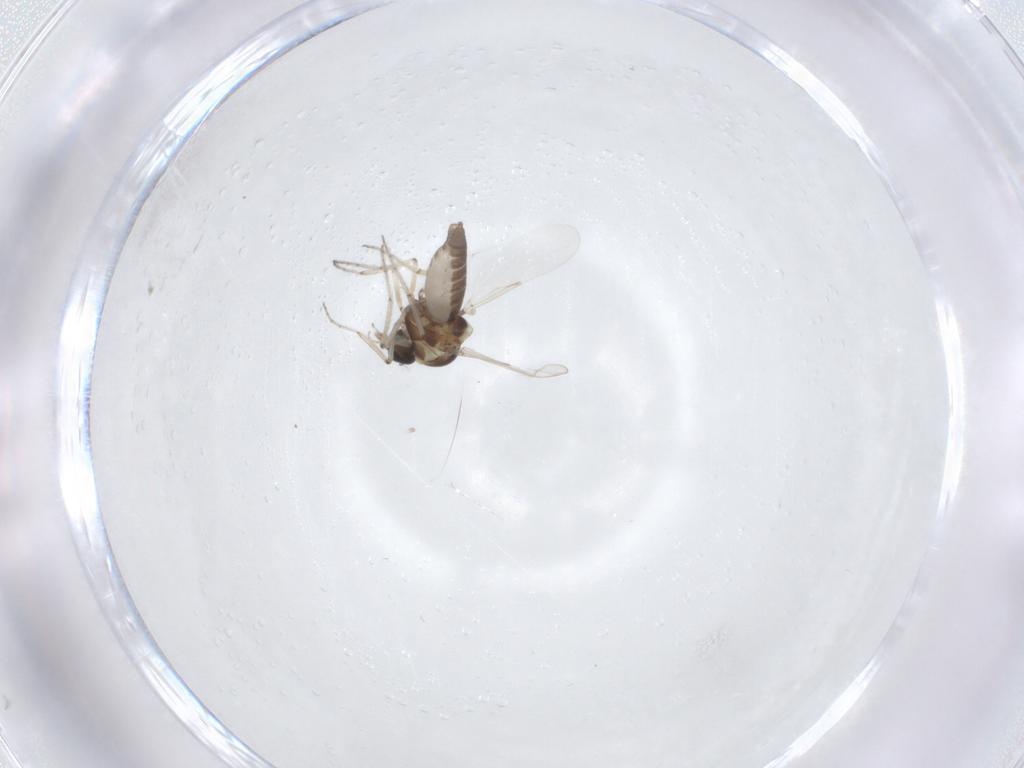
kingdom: Animalia
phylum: Arthropoda
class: Insecta
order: Diptera
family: Ceratopogonidae
